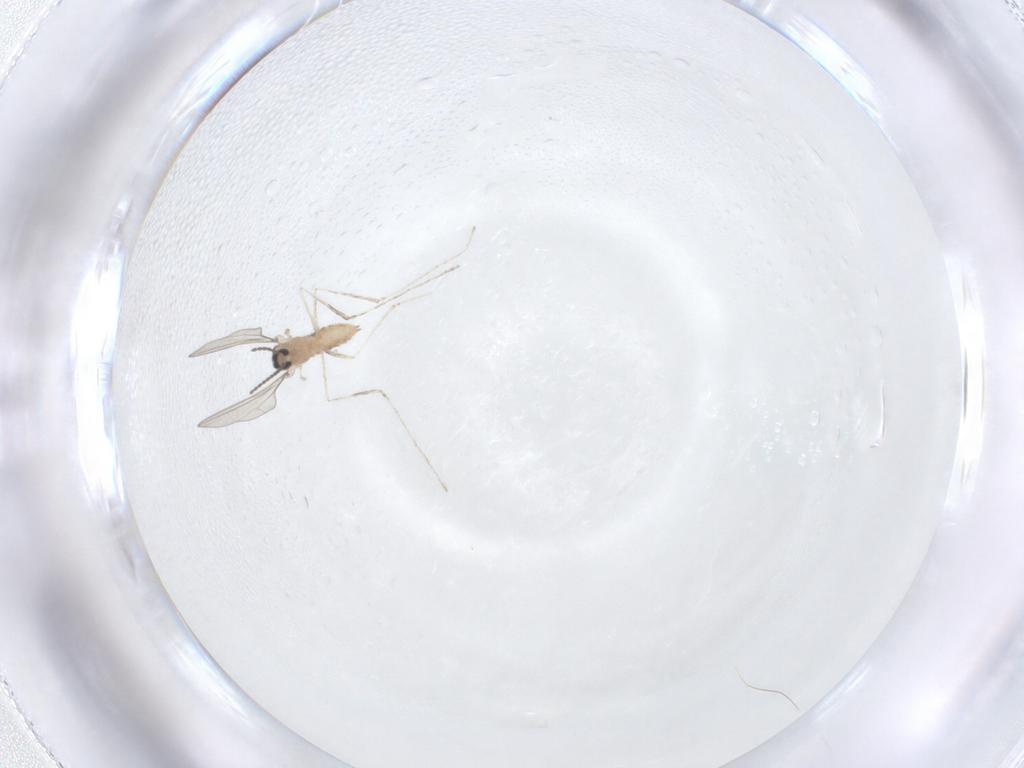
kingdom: Animalia
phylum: Arthropoda
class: Insecta
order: Diptera
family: Cecidomyiidae
